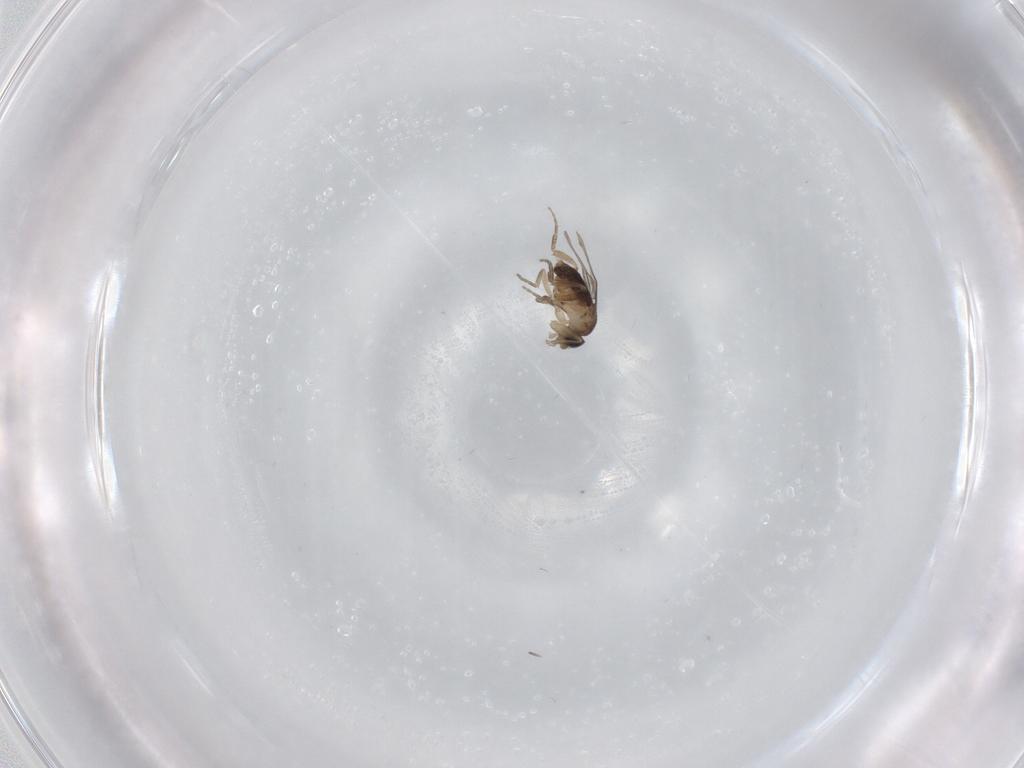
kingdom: Animalia
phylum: Arthropoda
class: Insecta
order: Diptera
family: Phoridae
